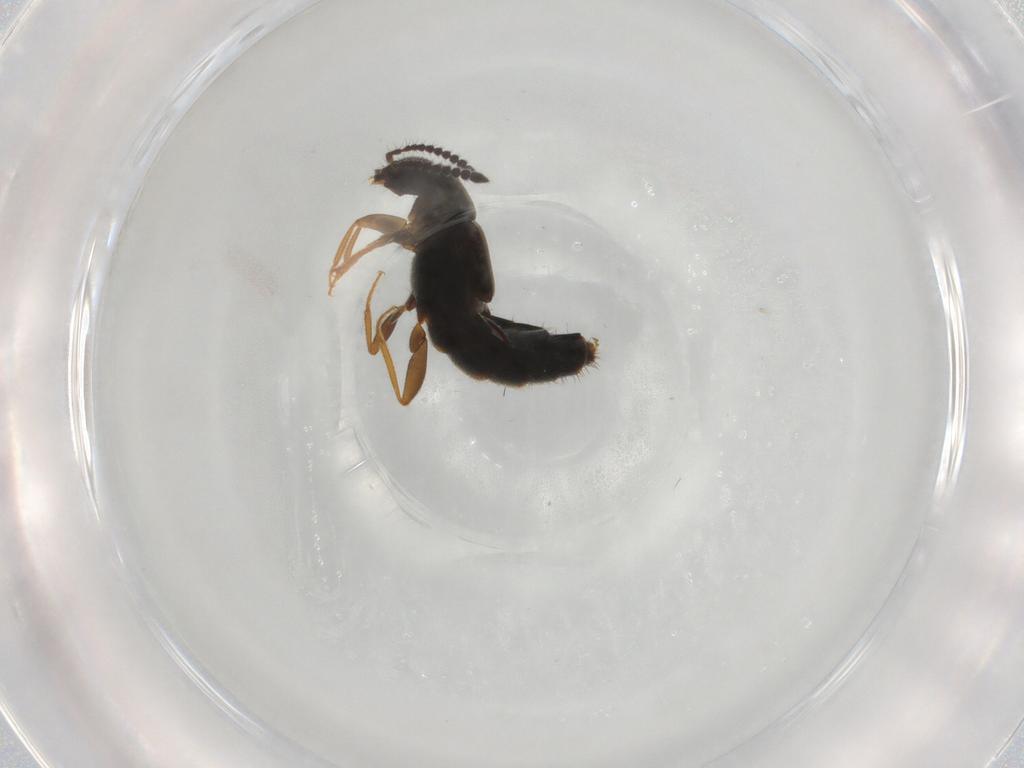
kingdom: Animalia
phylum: Arthropoda
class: Insecta
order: Coleoptera
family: Staphylinidae
